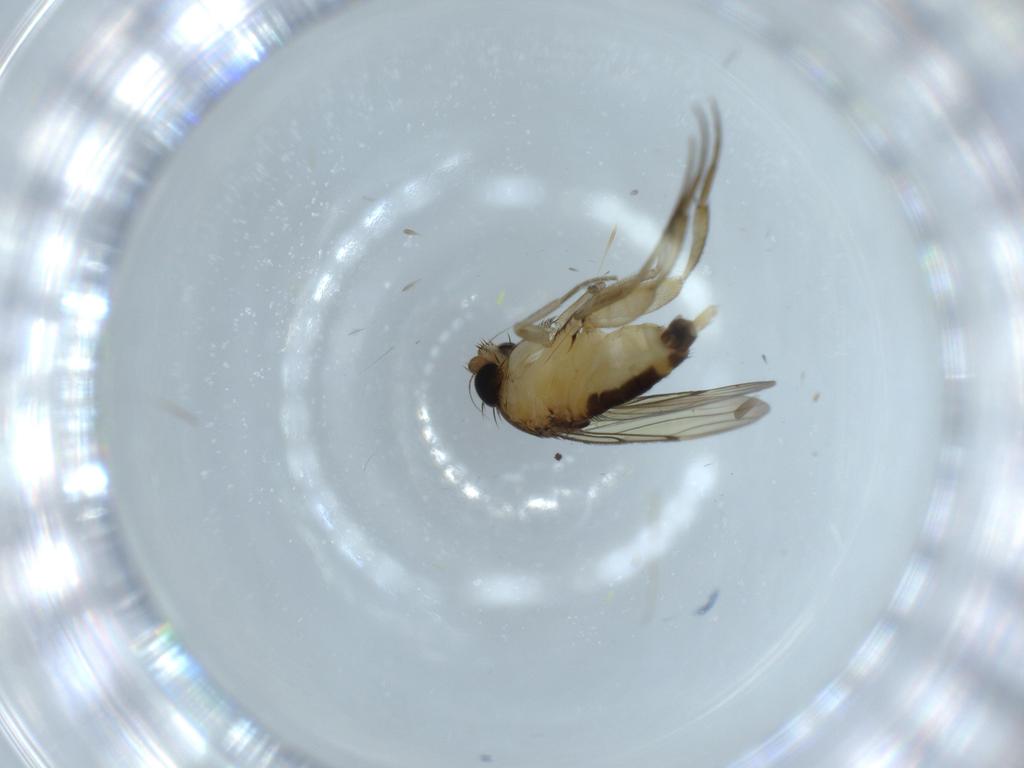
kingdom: Animalia
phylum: Arthropoda
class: Insecta
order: Diptera
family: Phoridae
